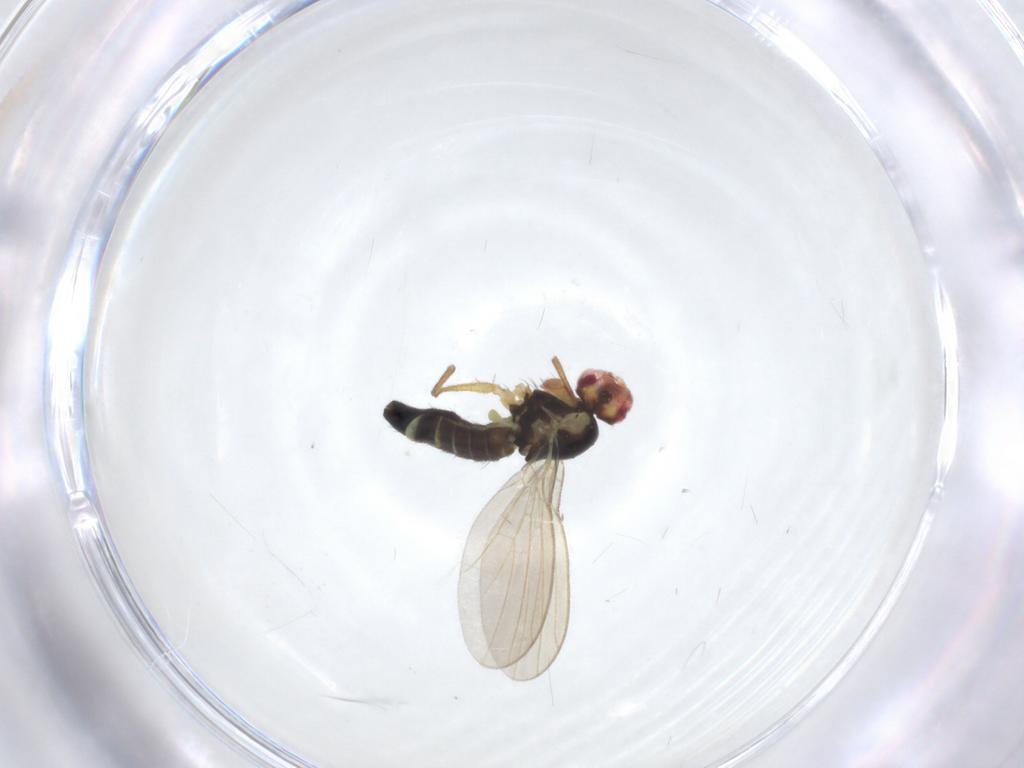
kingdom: Animalia
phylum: Arthropoda
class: Insecta
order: Diptera
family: Agromyzidae
